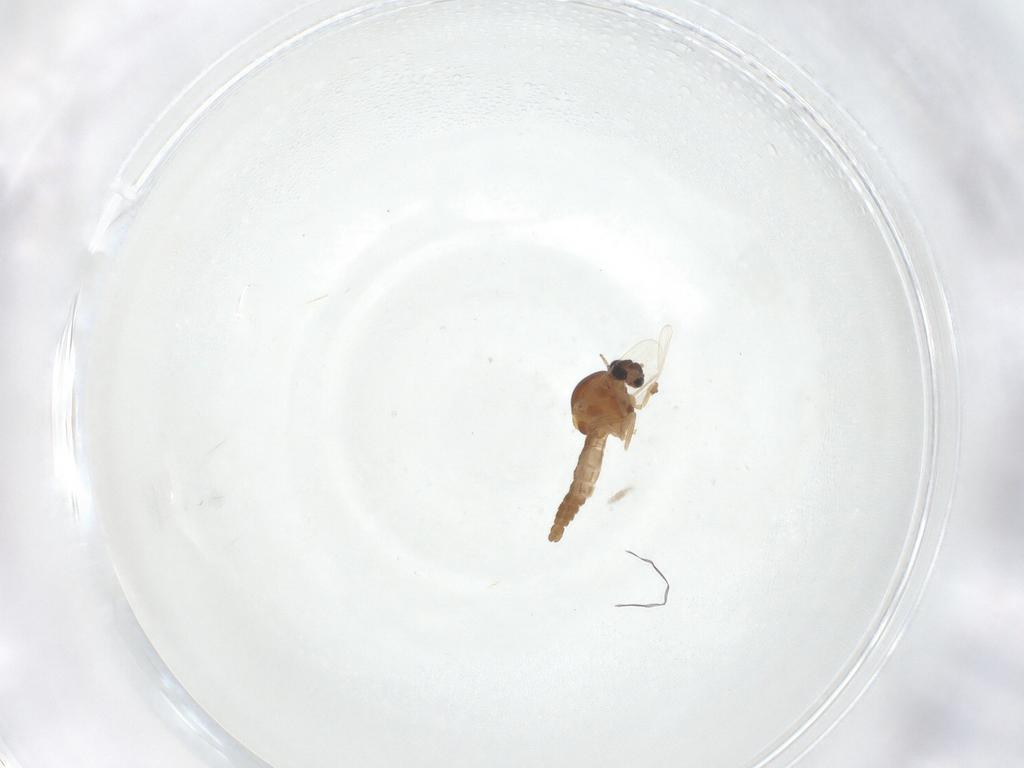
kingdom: Animalia
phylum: Arthropoda
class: Insecta
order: Diptera
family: Ceratopogonidae
